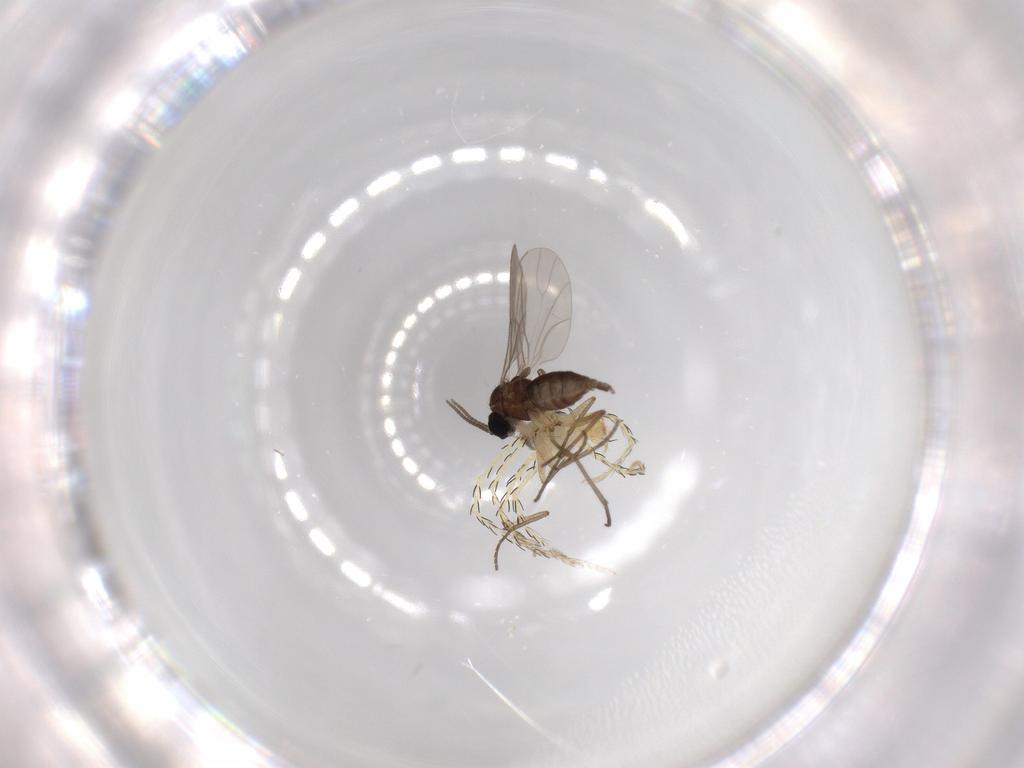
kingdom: Animalia
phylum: Arthropoda
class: Insecta
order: Diptera
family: Sciaridae
